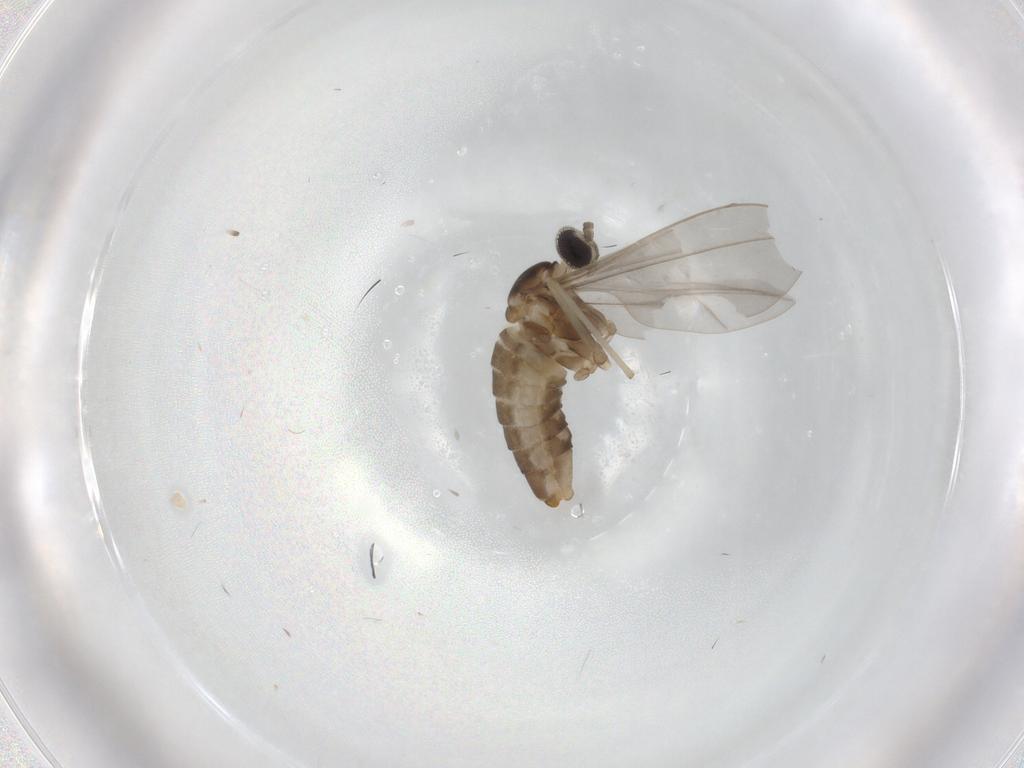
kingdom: Animalia
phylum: Arthropoda
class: Insecta
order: Diptera
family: Cecidomyiidae
